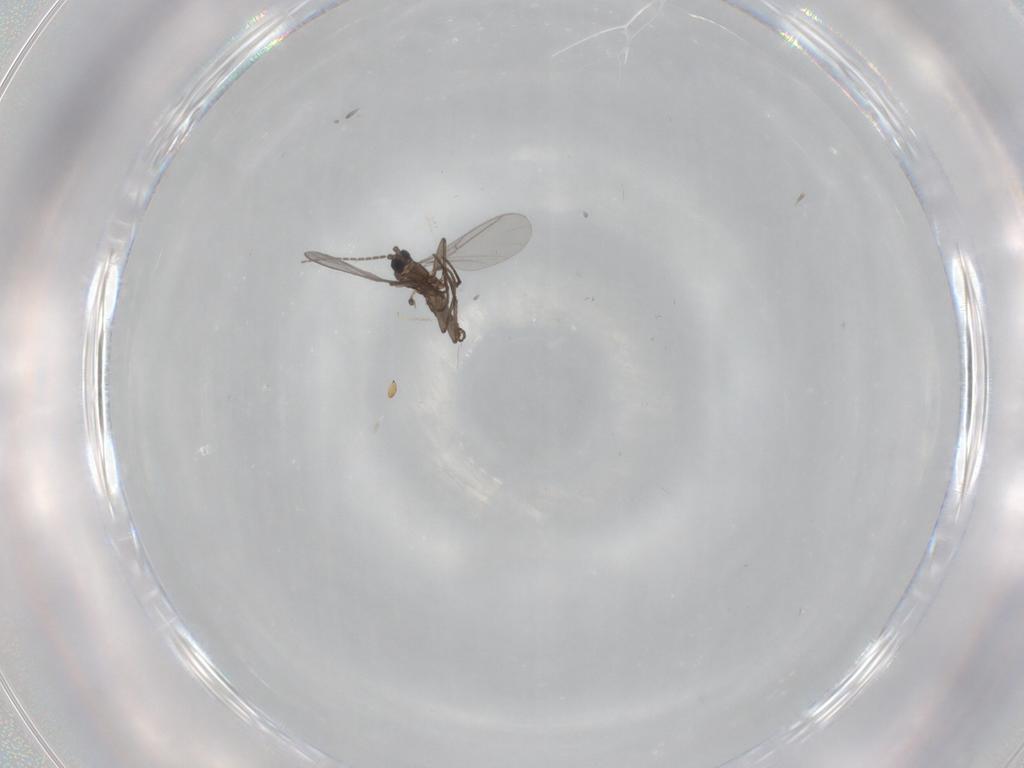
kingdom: Animalia
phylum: Arthropoda
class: Insecta
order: Diptera
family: Sciaridae
